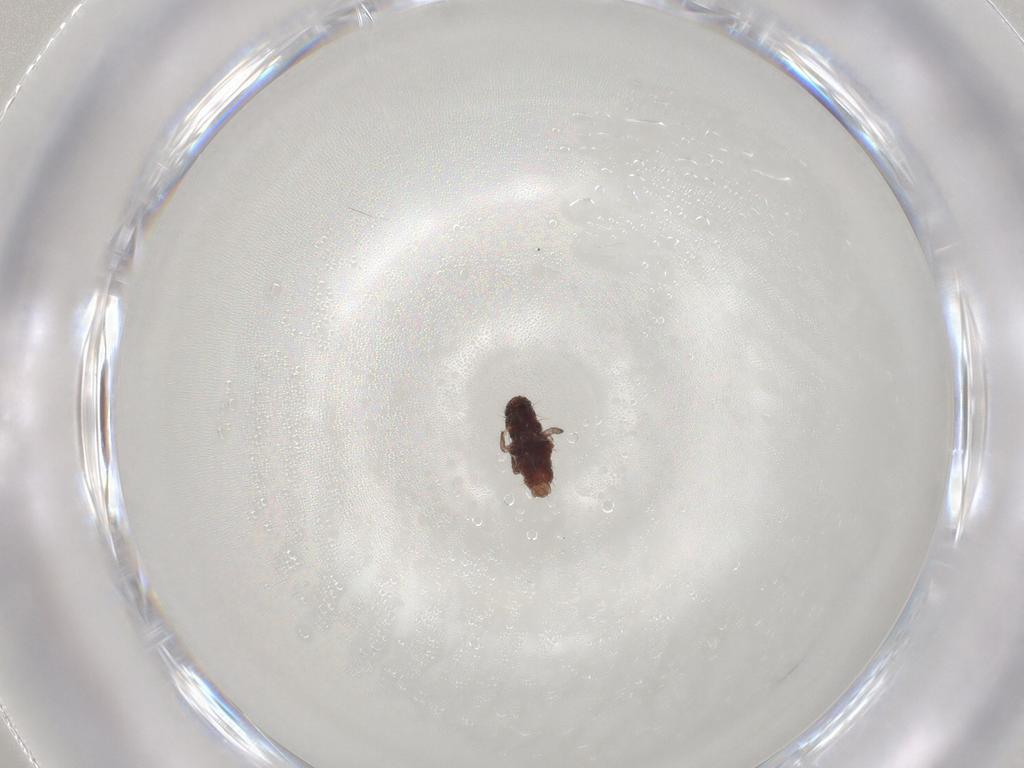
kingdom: Animalia
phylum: Arthropoda
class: Insecta
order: Coleoptera
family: Coccinellidae
